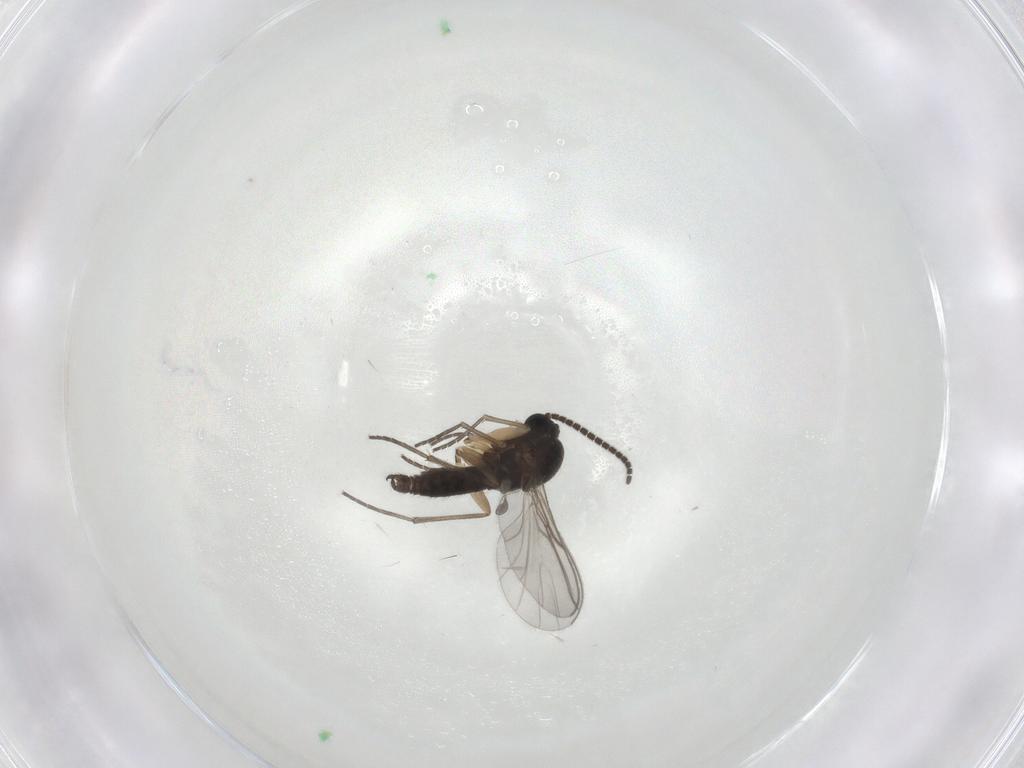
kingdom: Animalia
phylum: Arthropoda
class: Insecta
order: Diptera
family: Sciaridae
